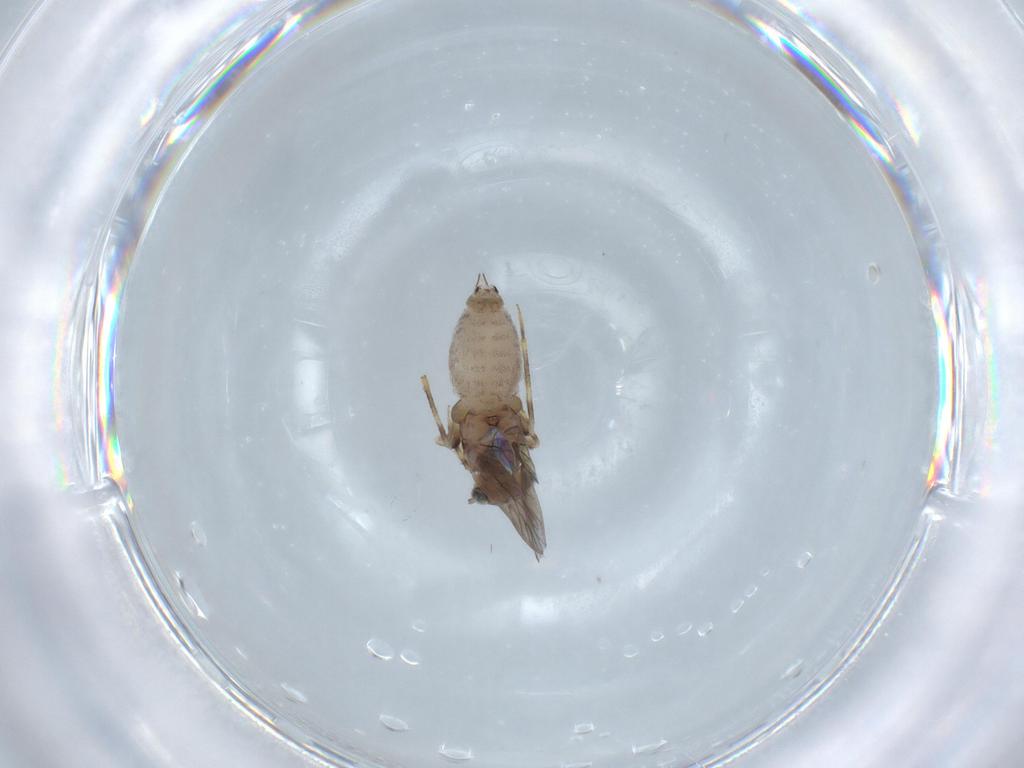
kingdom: Animalia
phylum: Arthropoda
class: Insecta
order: Psocodea
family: Lepidopsocidae
